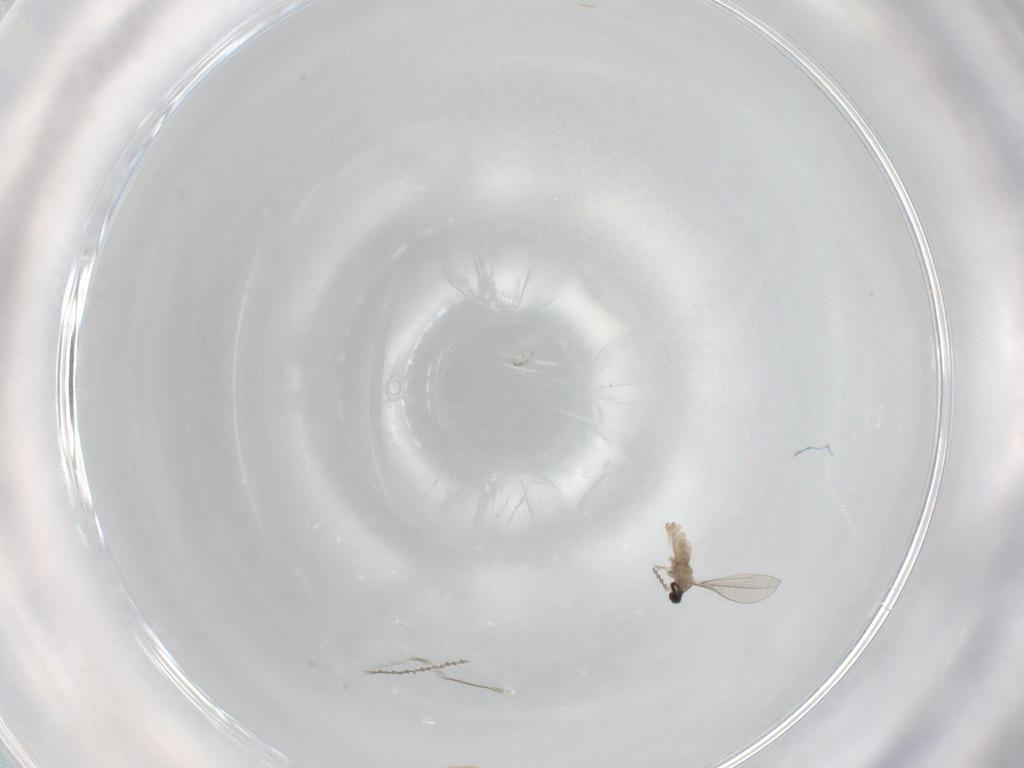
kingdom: Animalia
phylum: Arthropoda
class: Insecta
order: Diptera
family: Cecidomyiidae
